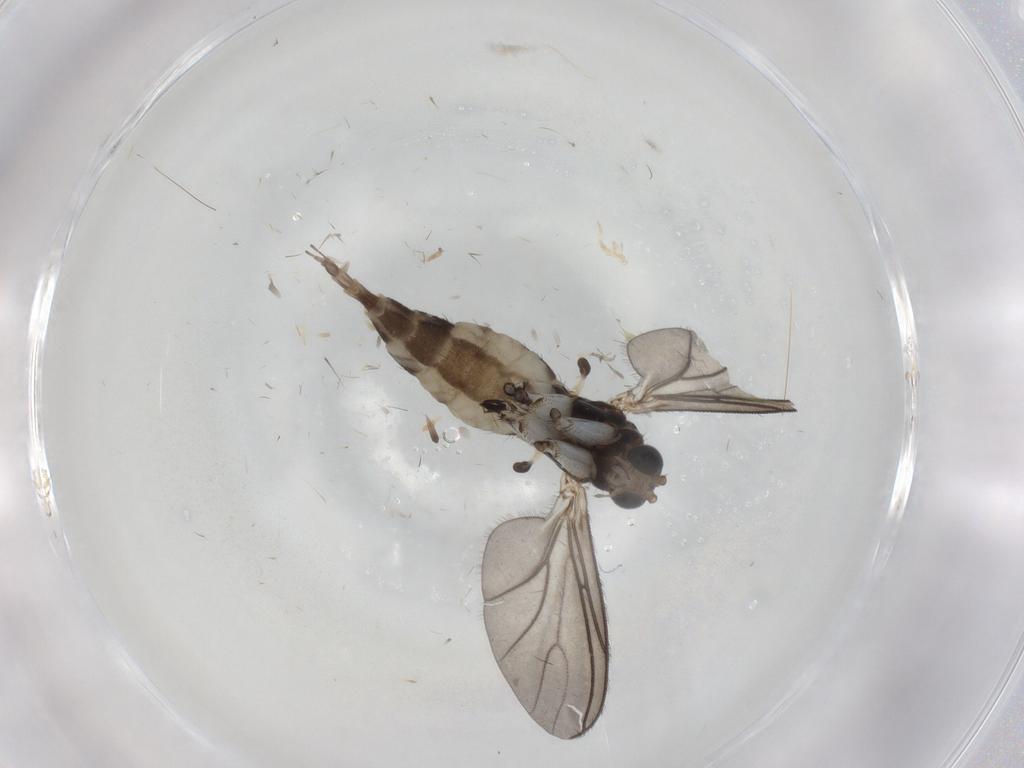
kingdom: Animalia
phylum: Arthropoda
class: Insecta
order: Diptera
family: Sciaridae
